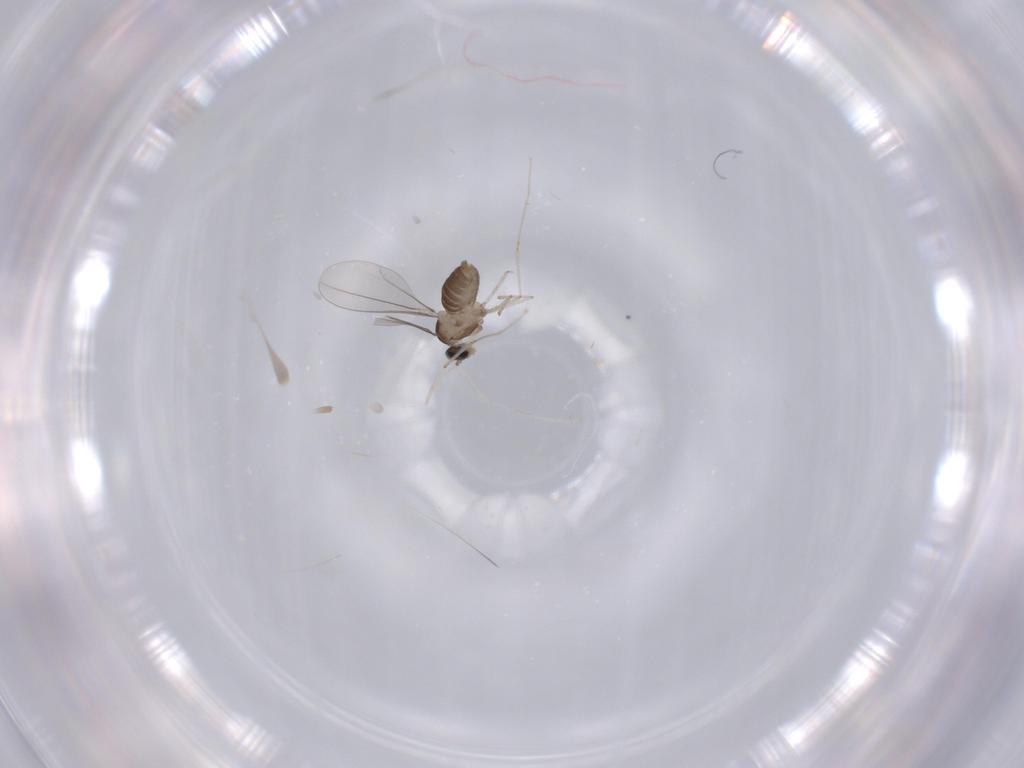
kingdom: Animalia
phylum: Arthropoda
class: Insecta
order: Diptera
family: Cecidomyiidae
